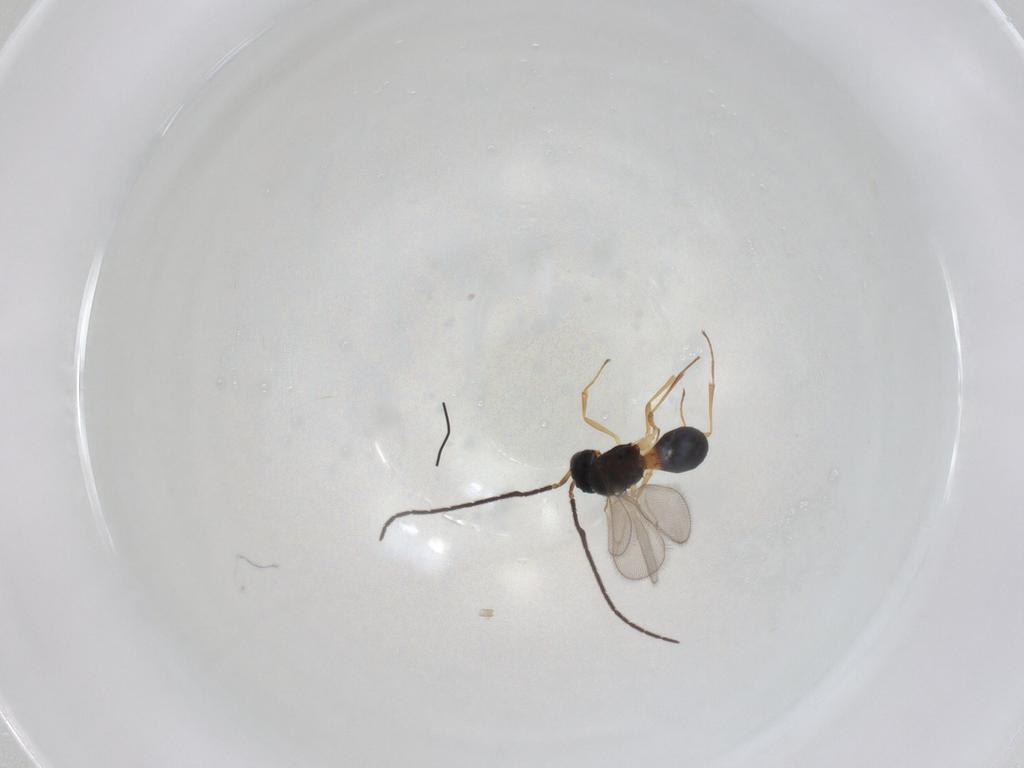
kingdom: Animalia
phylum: Arthropoda
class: Insecta
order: Hymenoptera
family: Scelionidae
